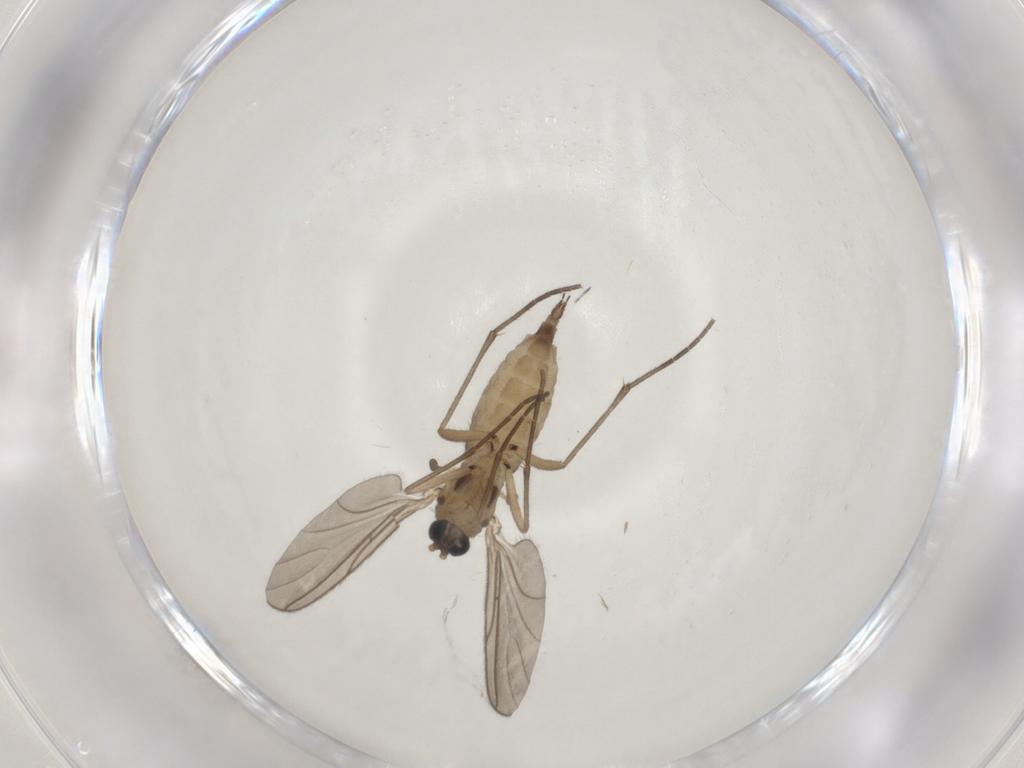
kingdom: Animalia
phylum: Arthropoda
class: Insecta
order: Diptera
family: Sciaridae
